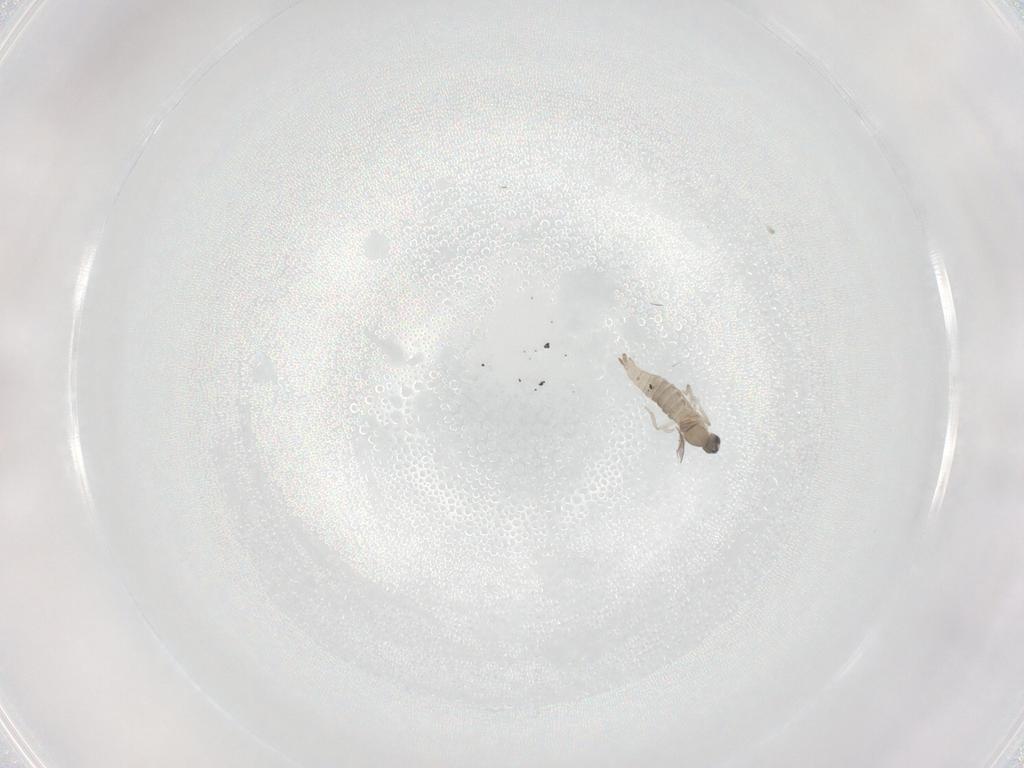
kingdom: Animalia
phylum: Arthropoda
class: Insecta
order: Diptera
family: Cecidomyiidae
